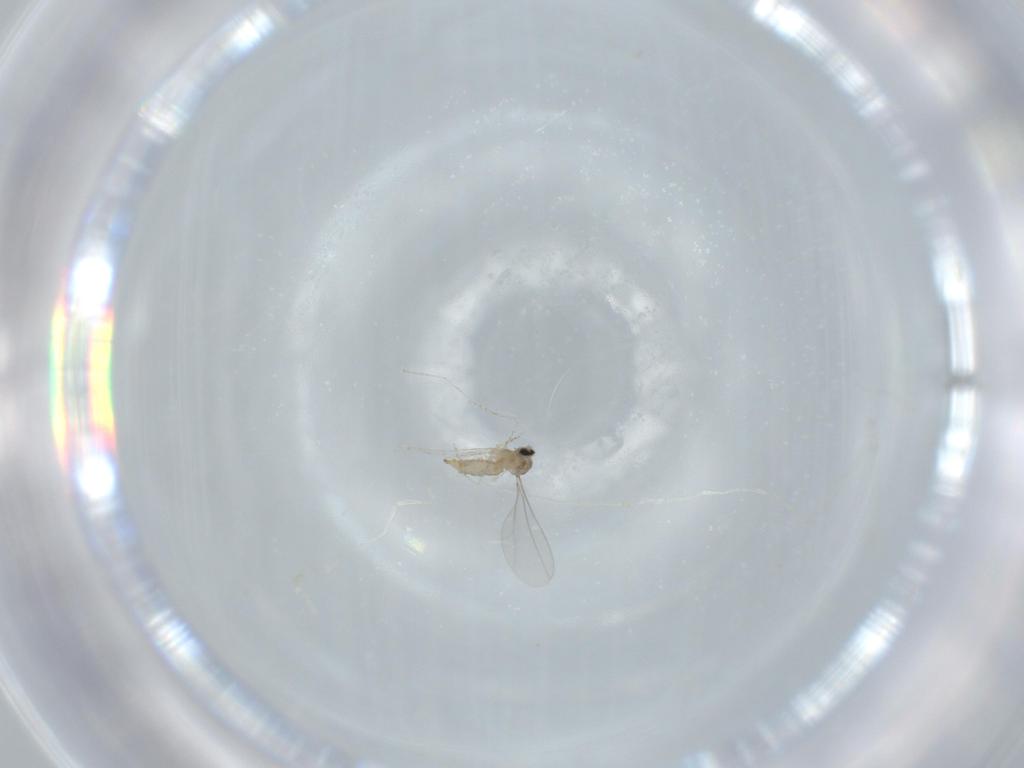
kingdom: Animalia
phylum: Arthropoda
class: Insecta
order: Diptera
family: Cecidomyiidae
